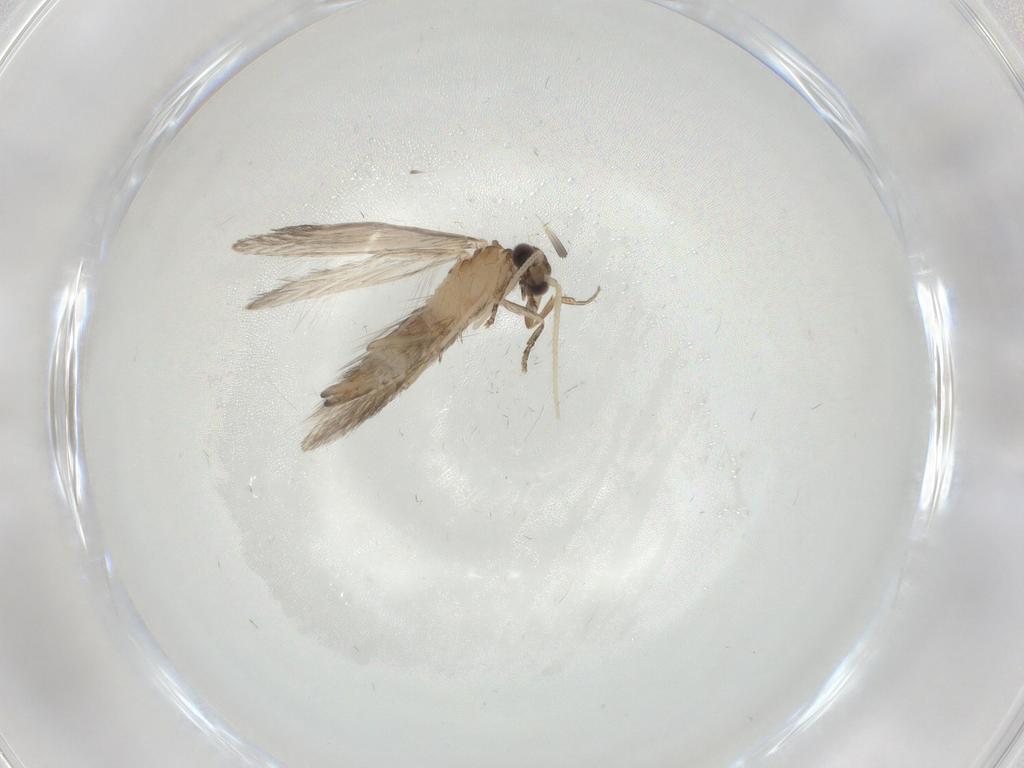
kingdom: Animalia
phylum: Arthropoda
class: Insecta
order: Trichoptera
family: Hydroptilidae
